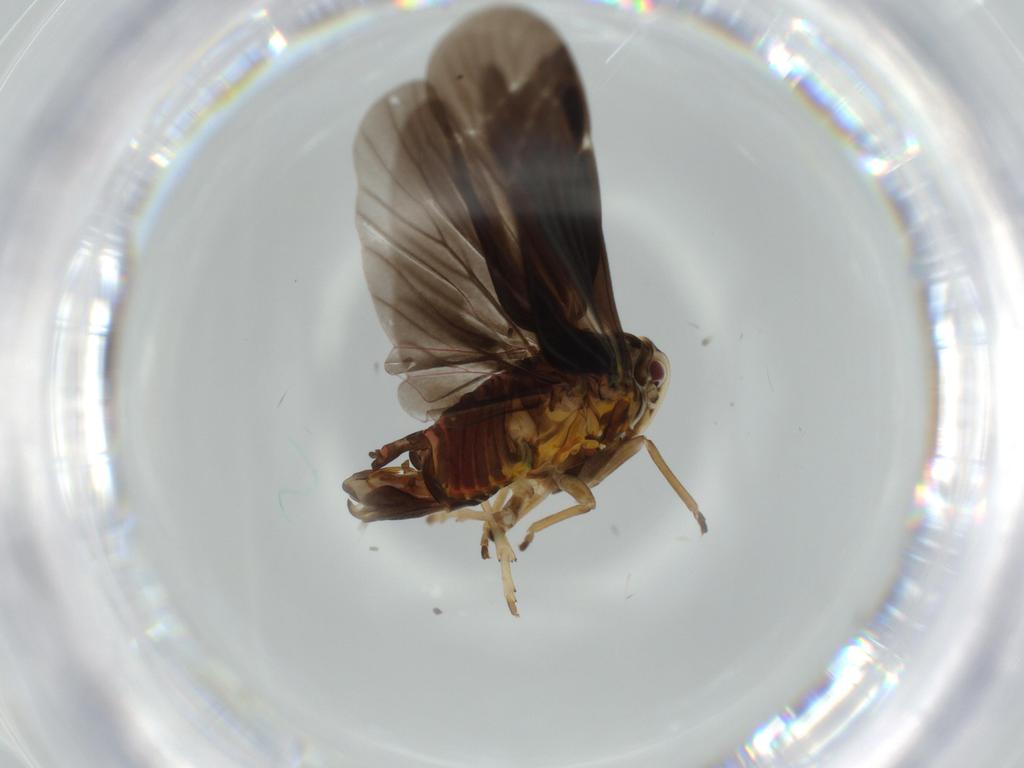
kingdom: Animalia
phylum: Arthropoda
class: Insecta
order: Hemiptera
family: Derbidae
